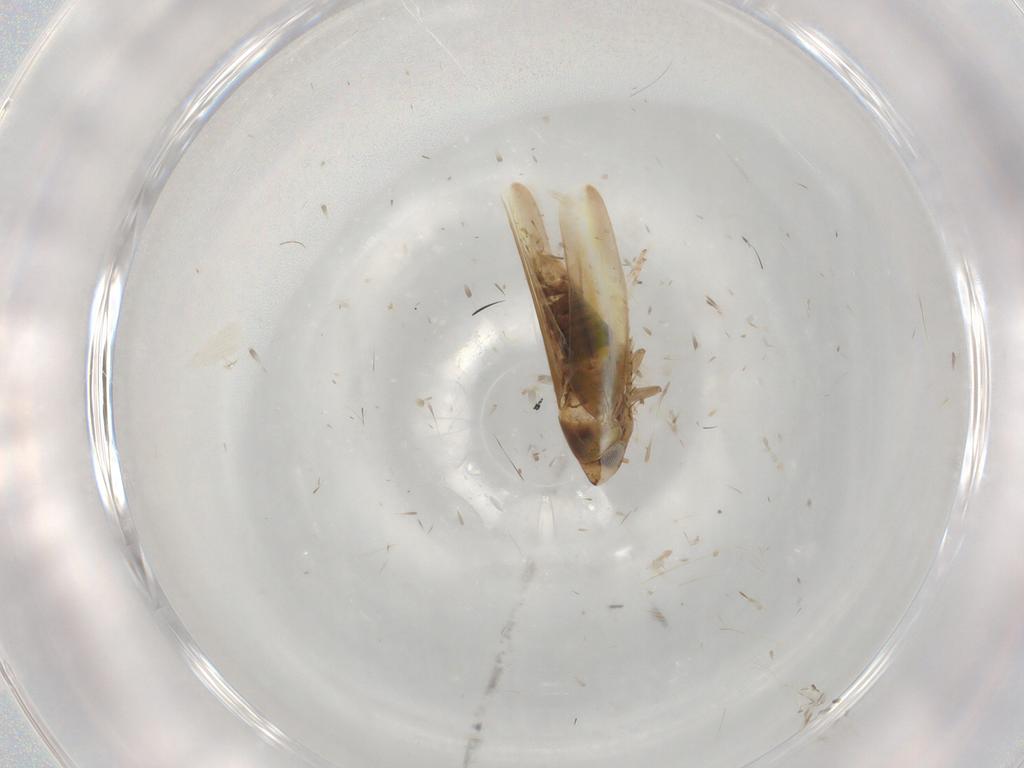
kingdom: Animalia
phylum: Arthropoda
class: Insecta
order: Hemiptera
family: Cicadellidae
